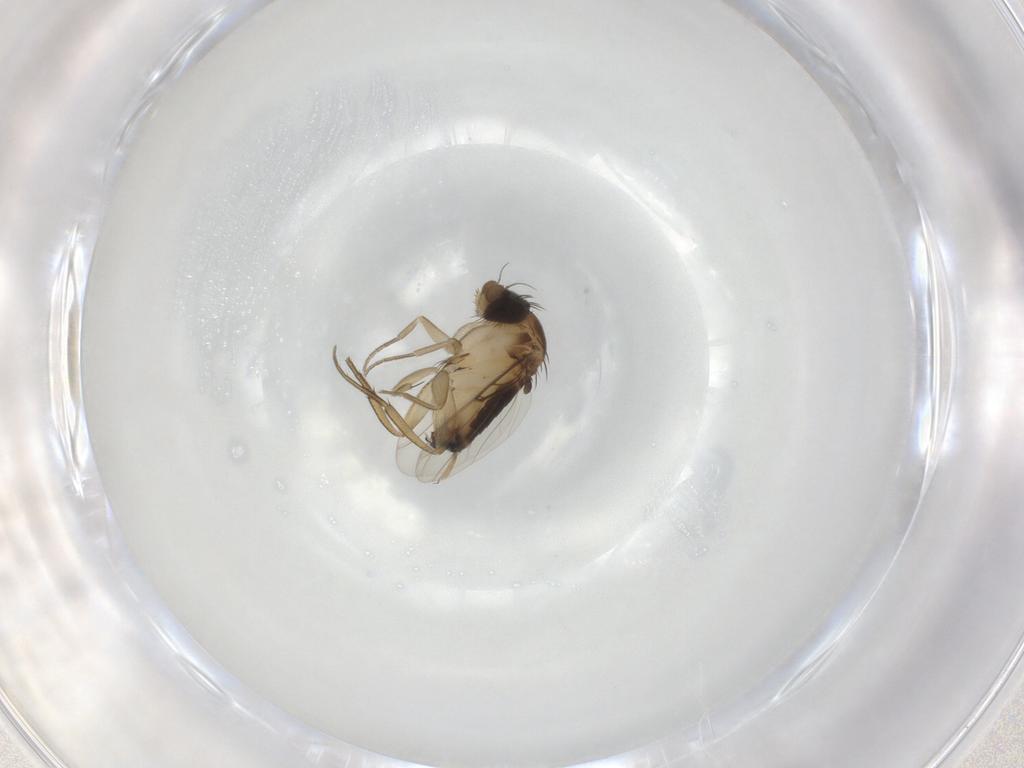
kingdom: Animalia
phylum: Arthropoda
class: Insecta
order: Diptera
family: Phoridae
